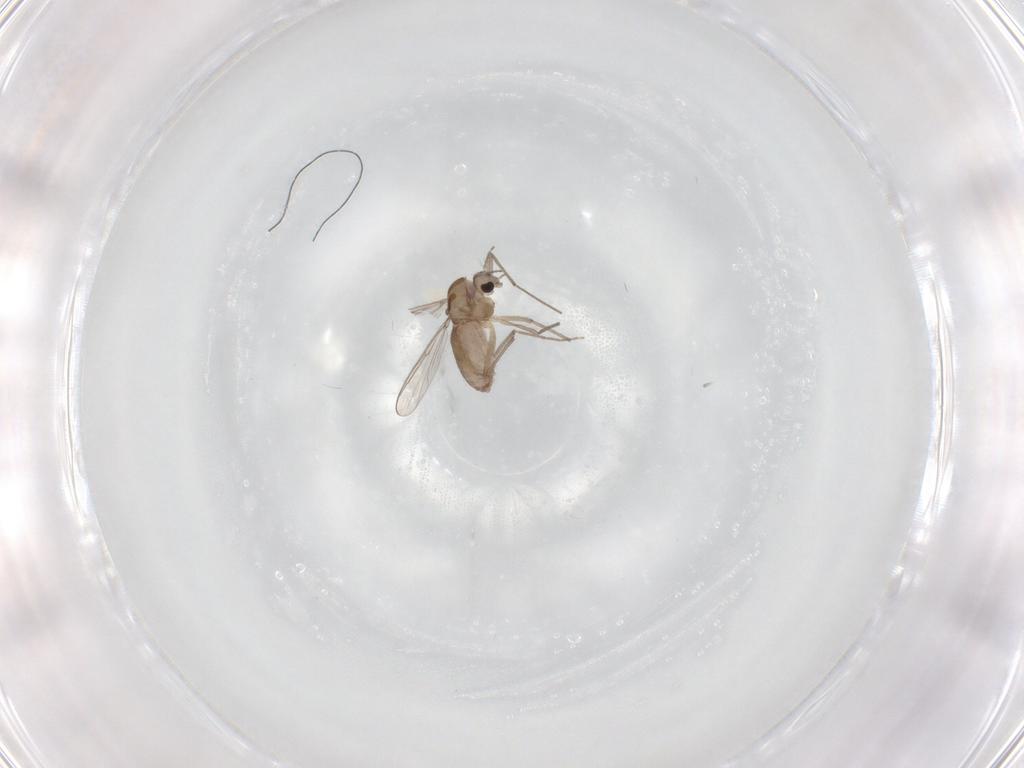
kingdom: Animalia
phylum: Arthropoda
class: Insecta
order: Diptera
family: Chironomidae
